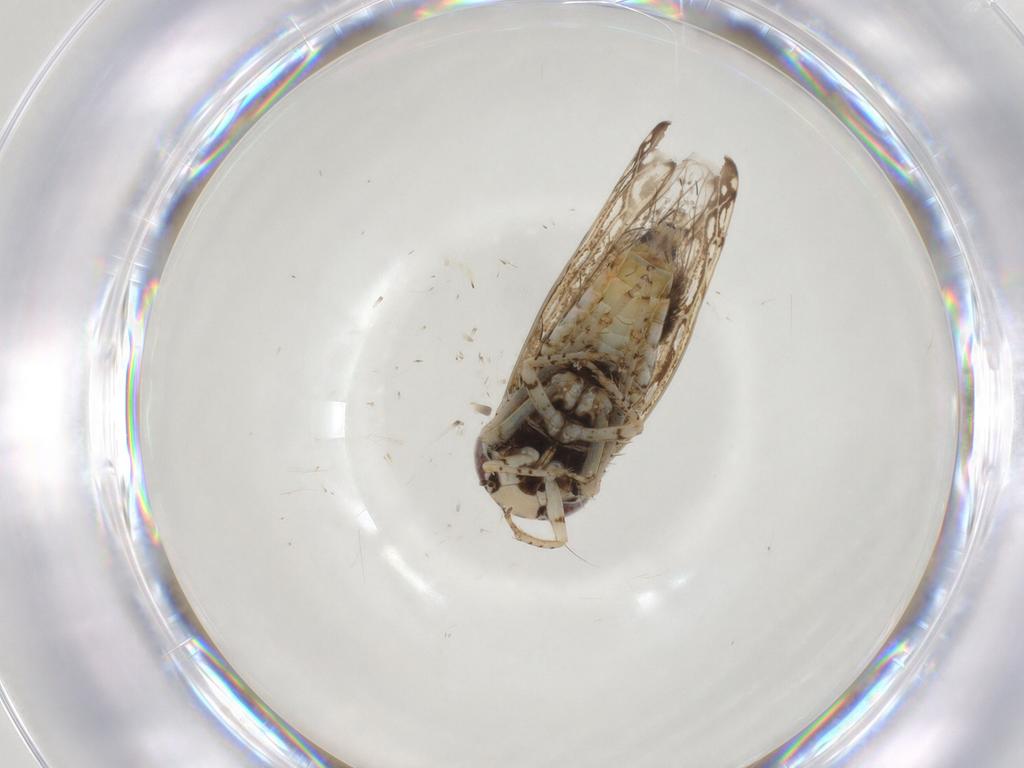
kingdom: Animalia
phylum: Arthropoda
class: Insecta
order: Hemiptera
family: Cicadellidae
